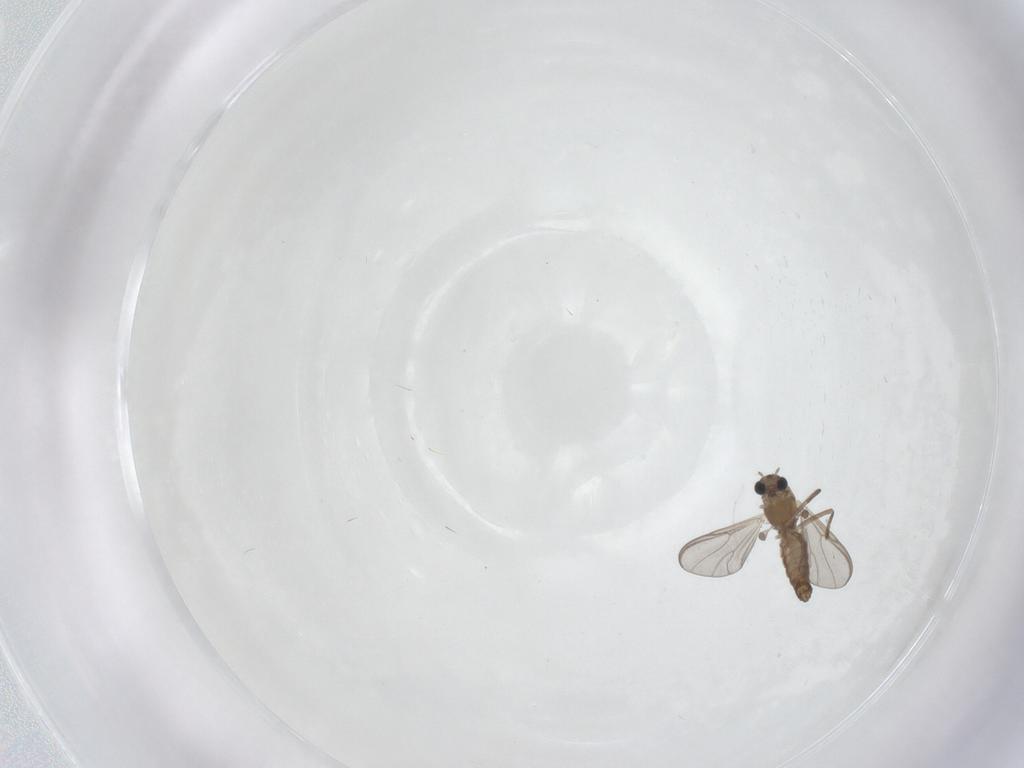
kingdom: Animalia
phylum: Arthropoda
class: Insecta
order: Diptera
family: Chironomidae
